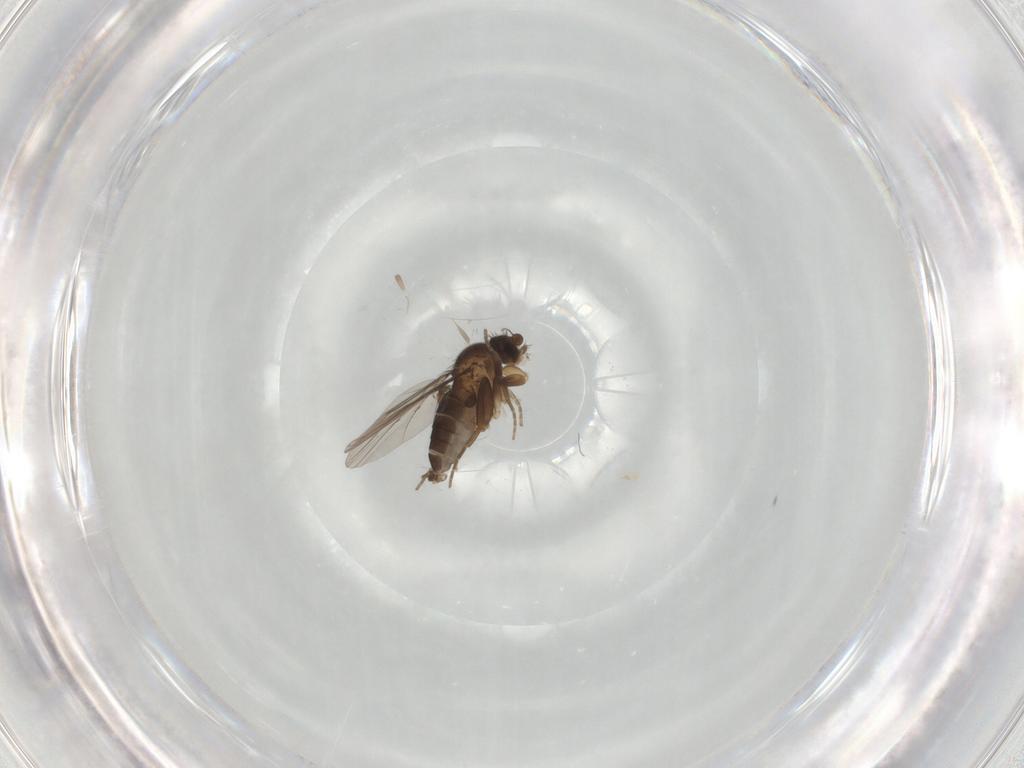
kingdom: Animalia
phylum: Arthropoda
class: Insecta
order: Diptera
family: Phoridae
